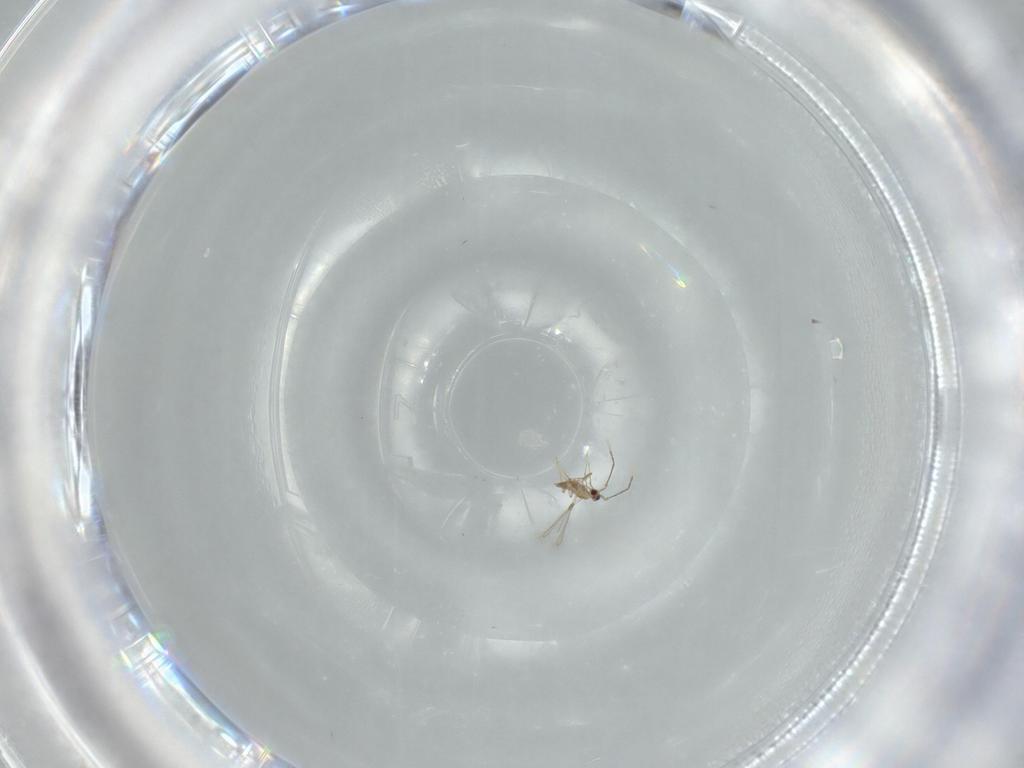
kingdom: Animalia
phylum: Arthropoda
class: Insecta
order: Hymenoptera
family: Mymaridae
